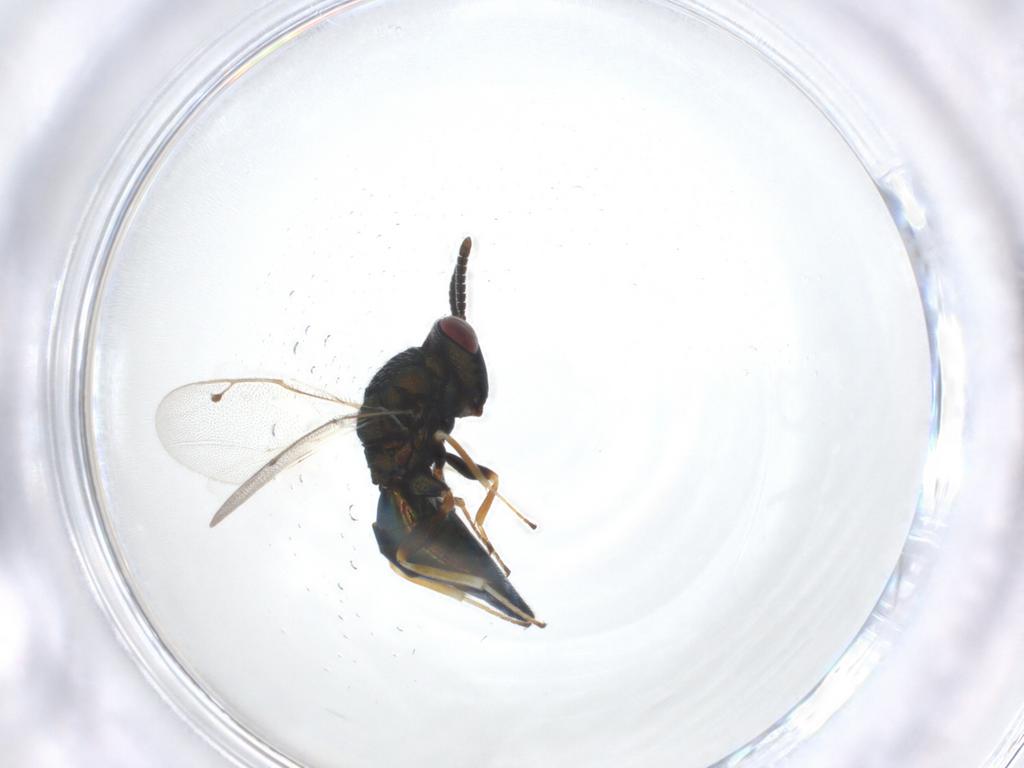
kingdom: Animalia
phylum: Arthropoda
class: Insecta
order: Hymenoptera
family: Pteromalidae
